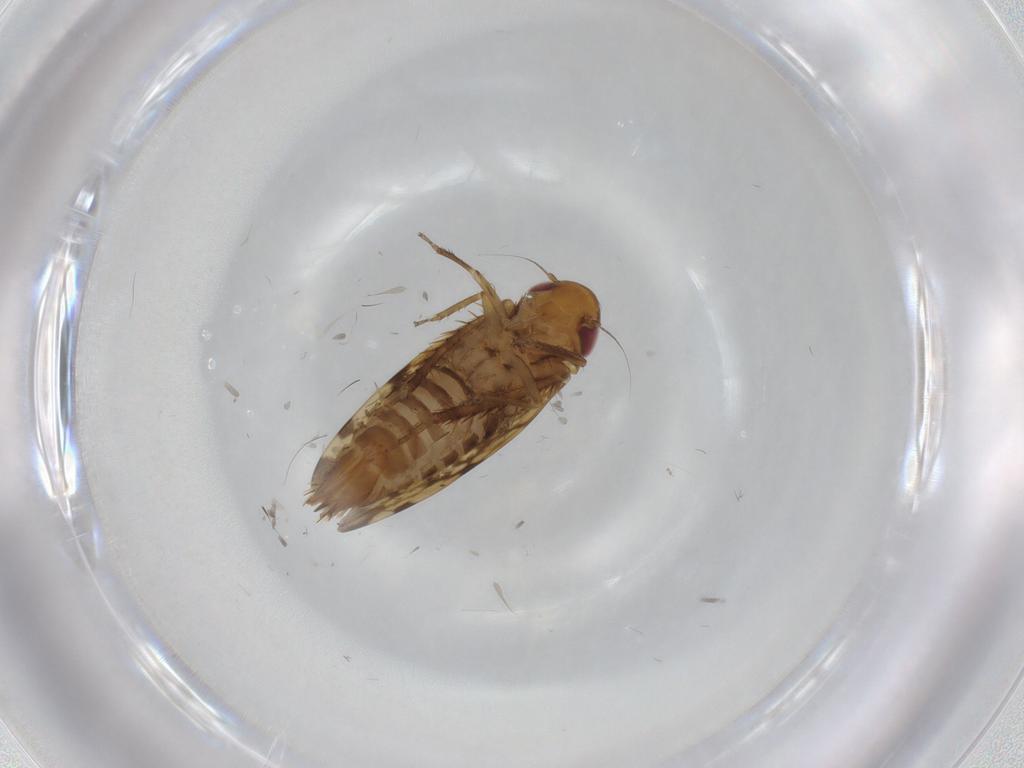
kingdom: Animalia
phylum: Arthropoda
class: Insecta
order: Hemiptera
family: Cicadellidae
